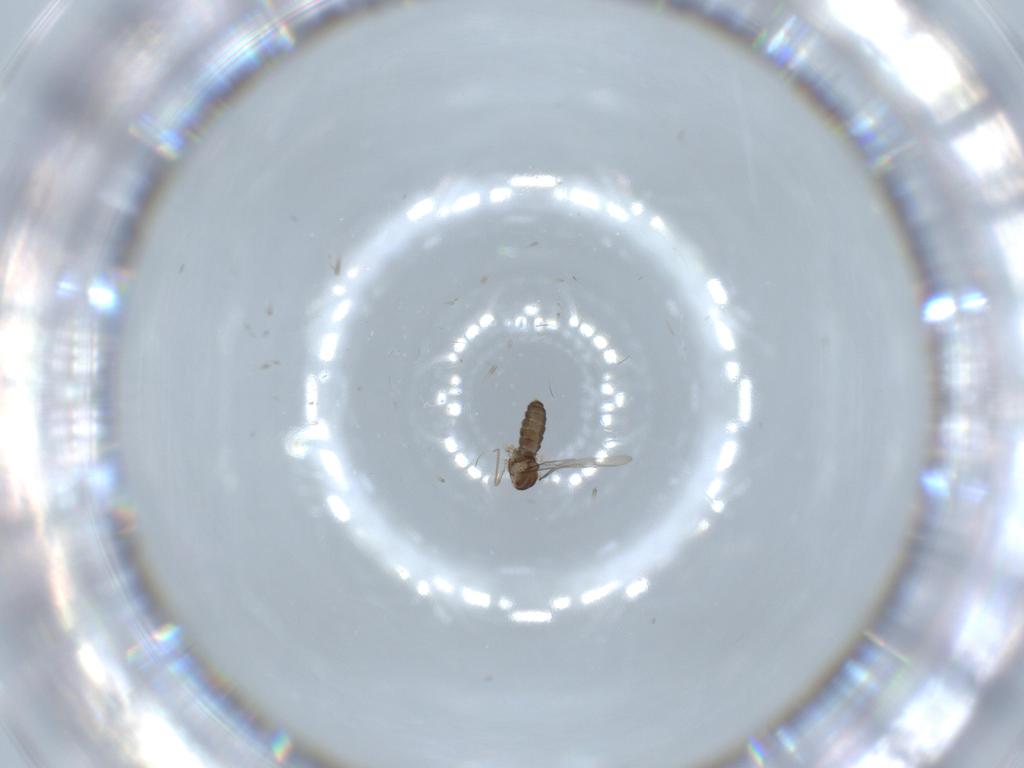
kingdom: Animalia
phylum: Arthropoda
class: Insecta
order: Diptera
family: Cecidomyiidae
